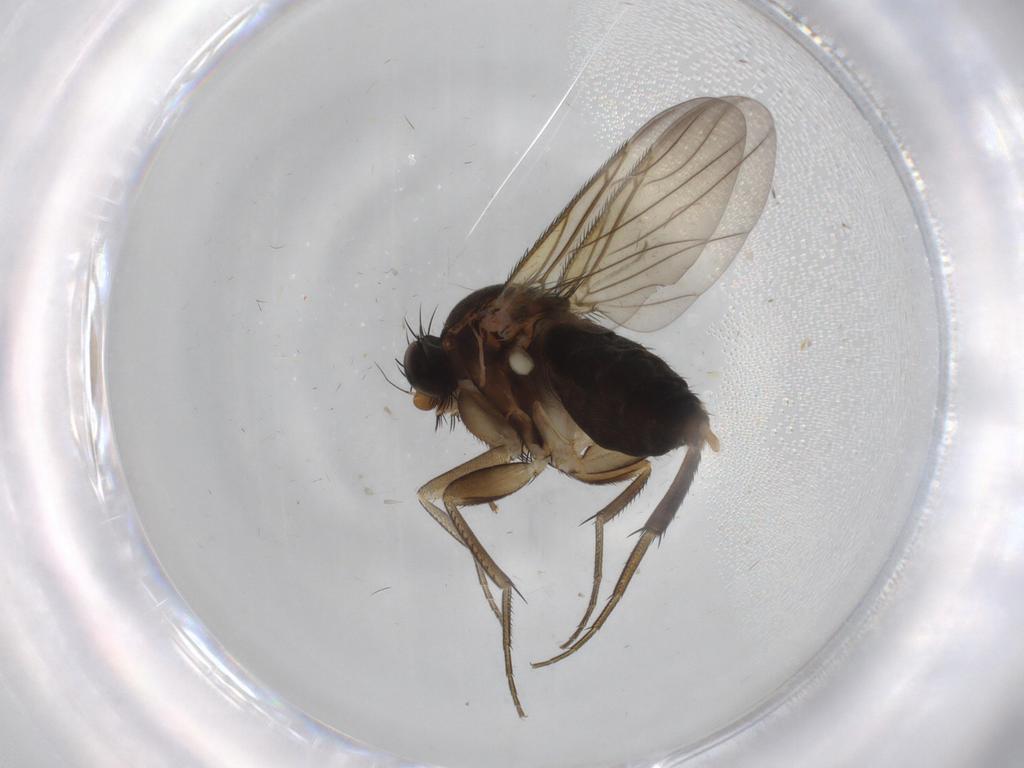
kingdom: Animalia
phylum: Arthropoda
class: Insecta
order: Diptera
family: Phoridae
